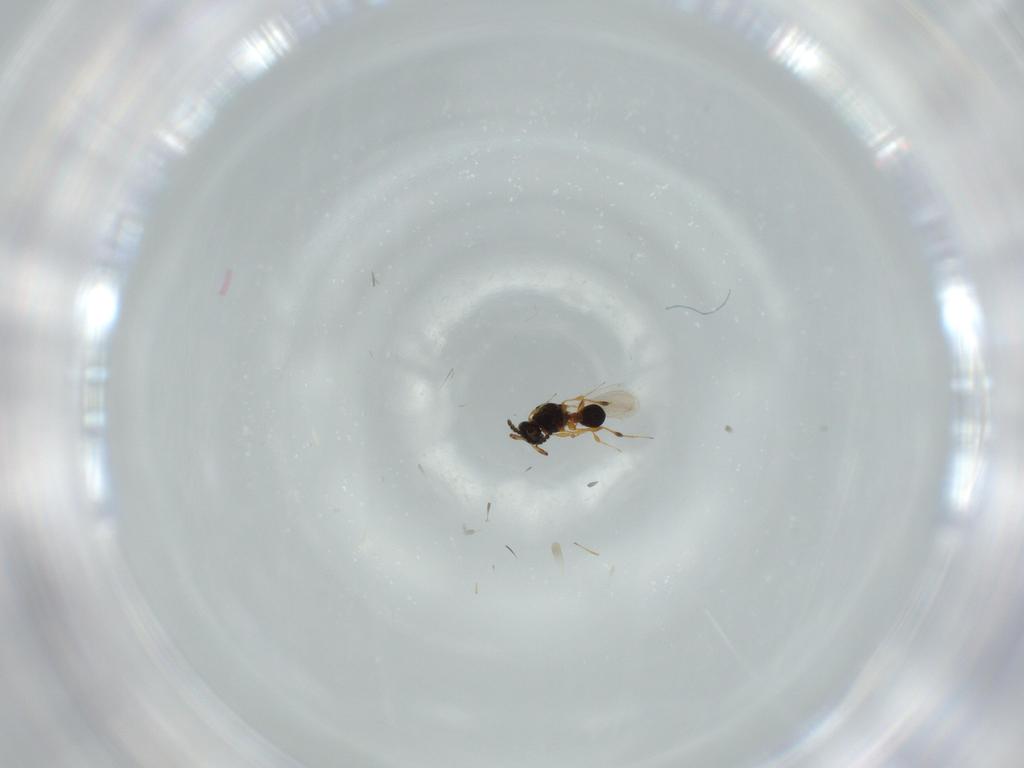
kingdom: Animalia
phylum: Arthropoda
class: Insecta
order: Hymenoptera
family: Platygastridae
